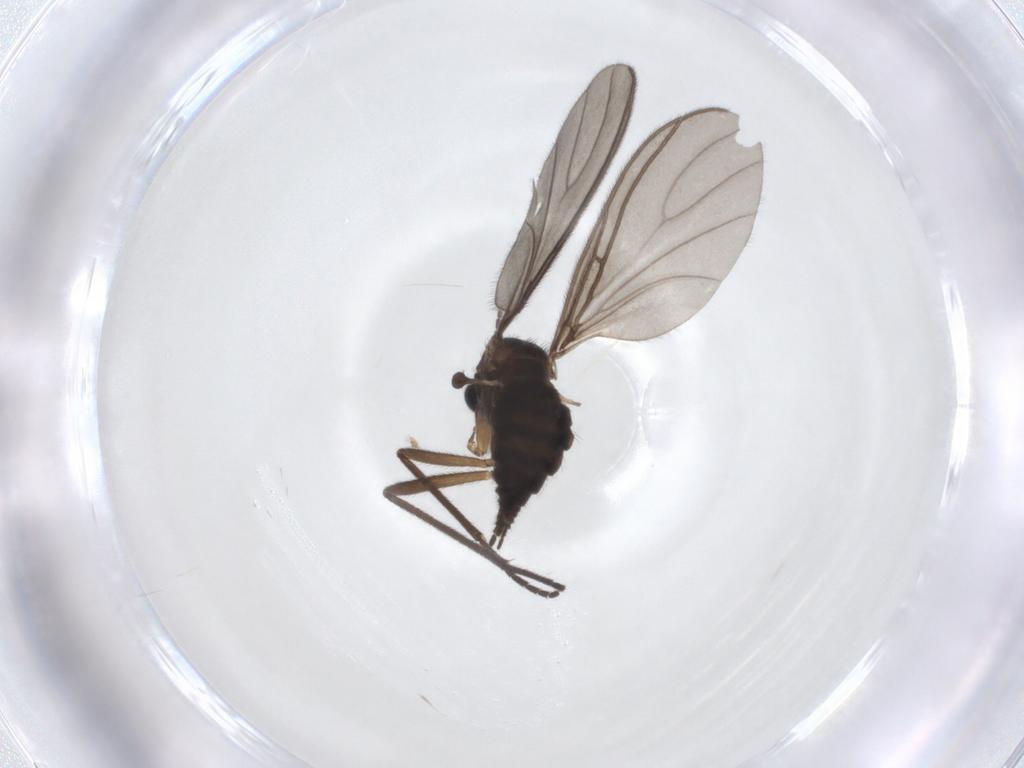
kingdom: Animalia
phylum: Arthropoda
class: Insecta
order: Diptera
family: Sciaridae
